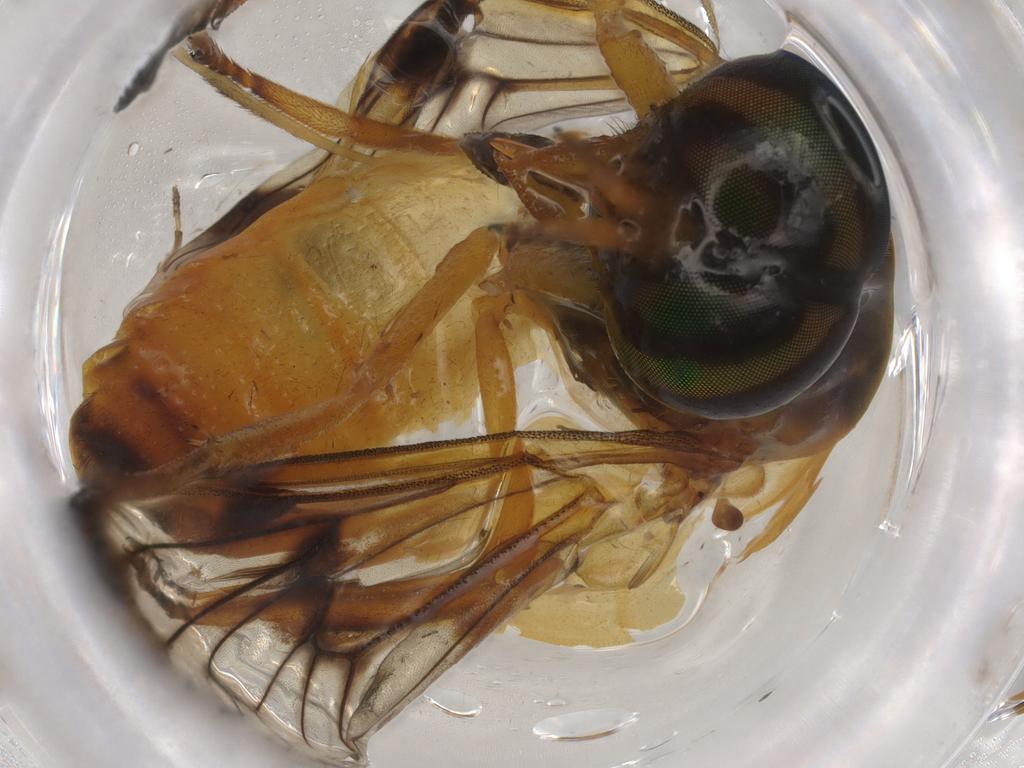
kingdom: Animalia
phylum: Arthropoda
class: Insecta
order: Diptera
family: Tabanidae
